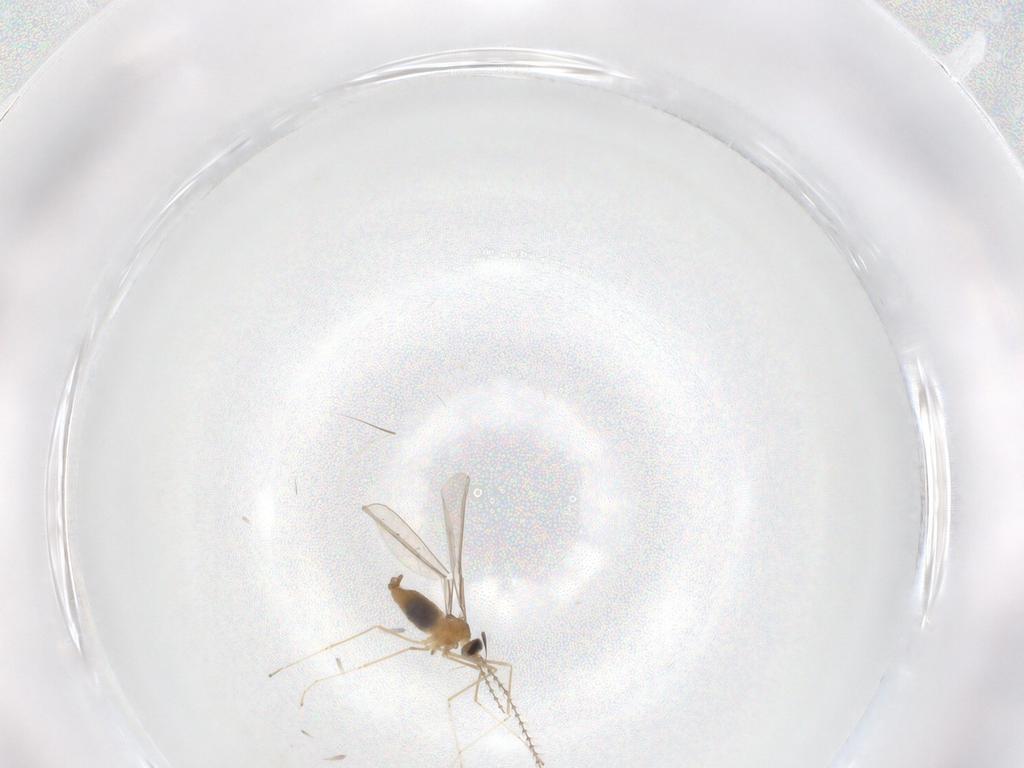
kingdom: Animalia
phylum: Arthropoda
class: Insecta
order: Diptera
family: Cecidomyiidae
